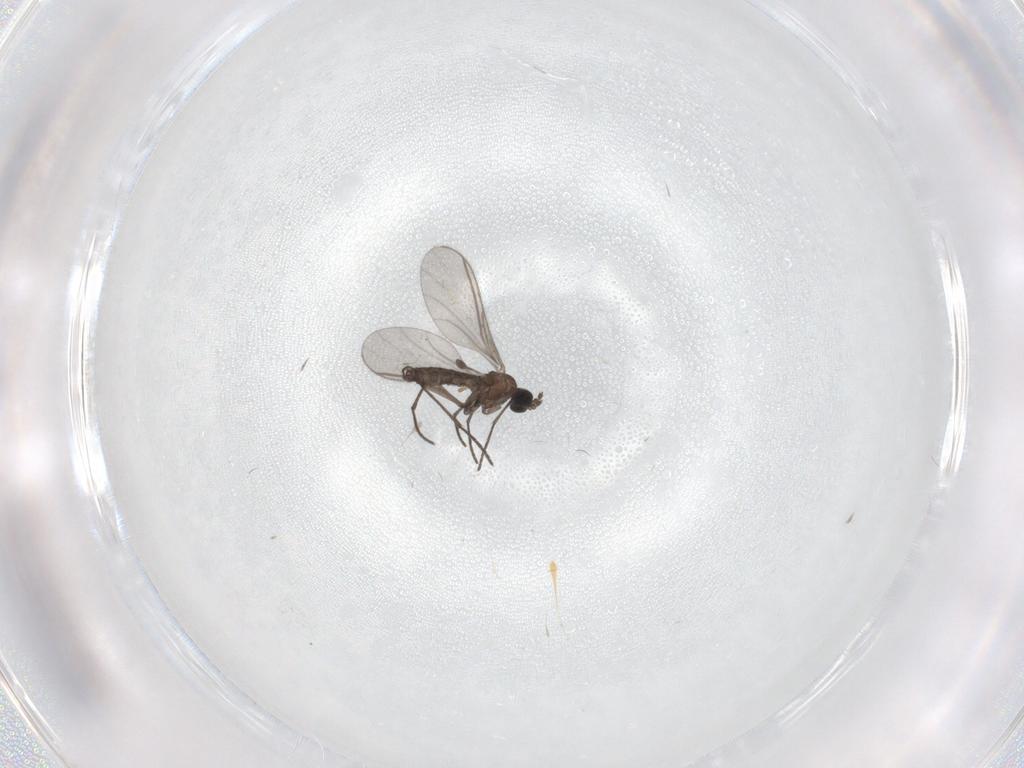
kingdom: Animalia
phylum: Arthropoda
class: Insecta
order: Diptera
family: Cecidomyiidae
